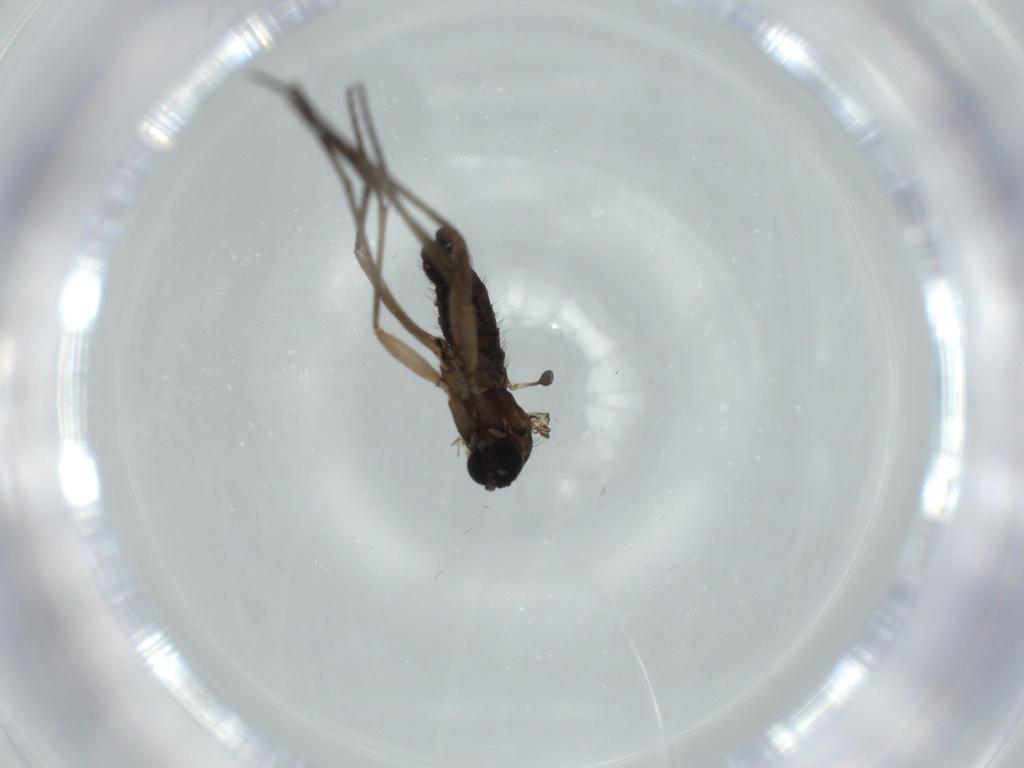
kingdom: Animalia
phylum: Arthropoda
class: Insecta
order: Diptera
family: Sciaridae
